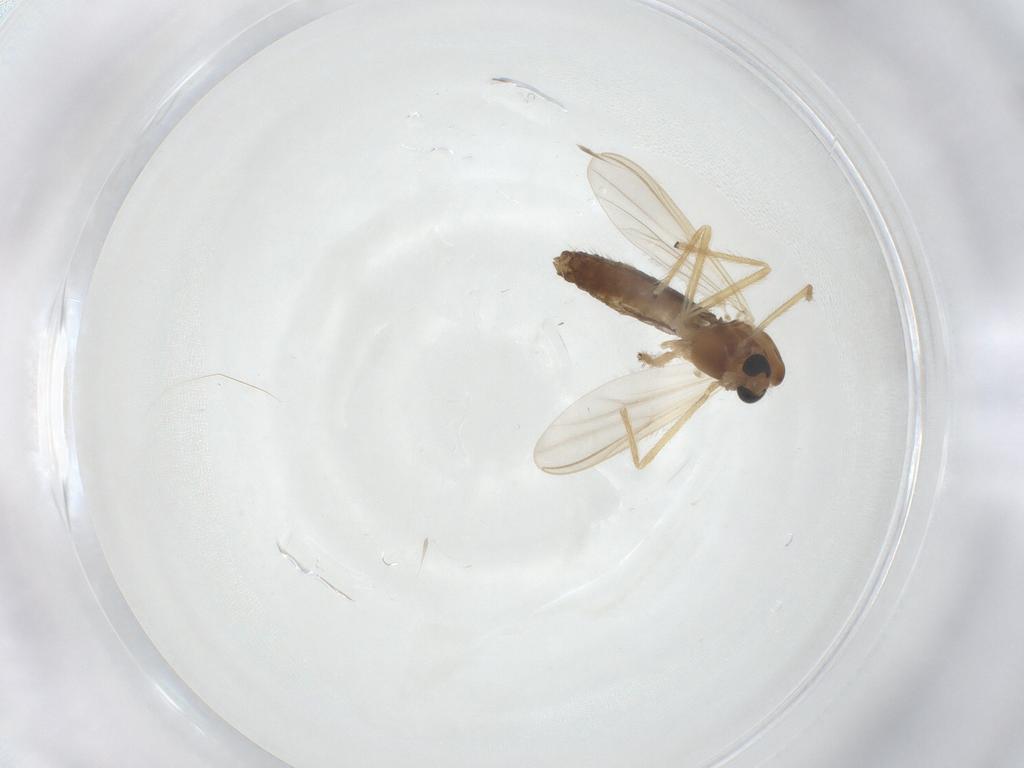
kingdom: Animalia
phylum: Arthropoda
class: Insecta
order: Diptera
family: Chironomidae
